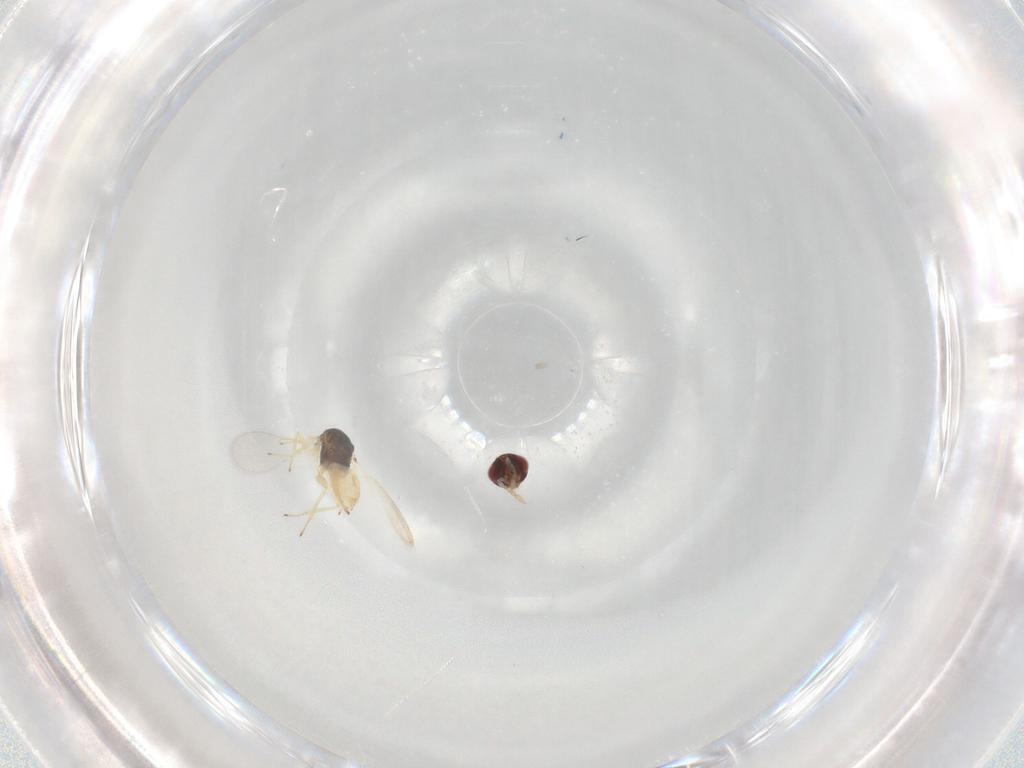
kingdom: Animalia
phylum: Arthropoda
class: Insecta
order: Hymenoptera
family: Eulophidae
